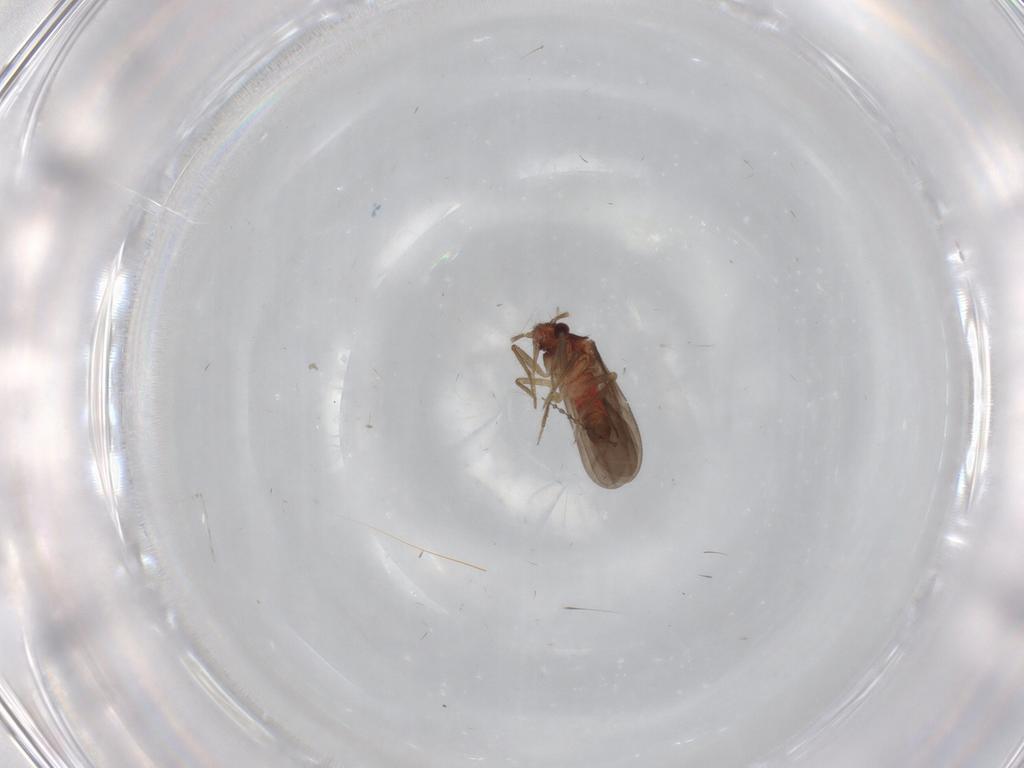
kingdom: Animalia
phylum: Arthropoda
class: Insecta
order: Hemiptera
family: Ceratocombidae
